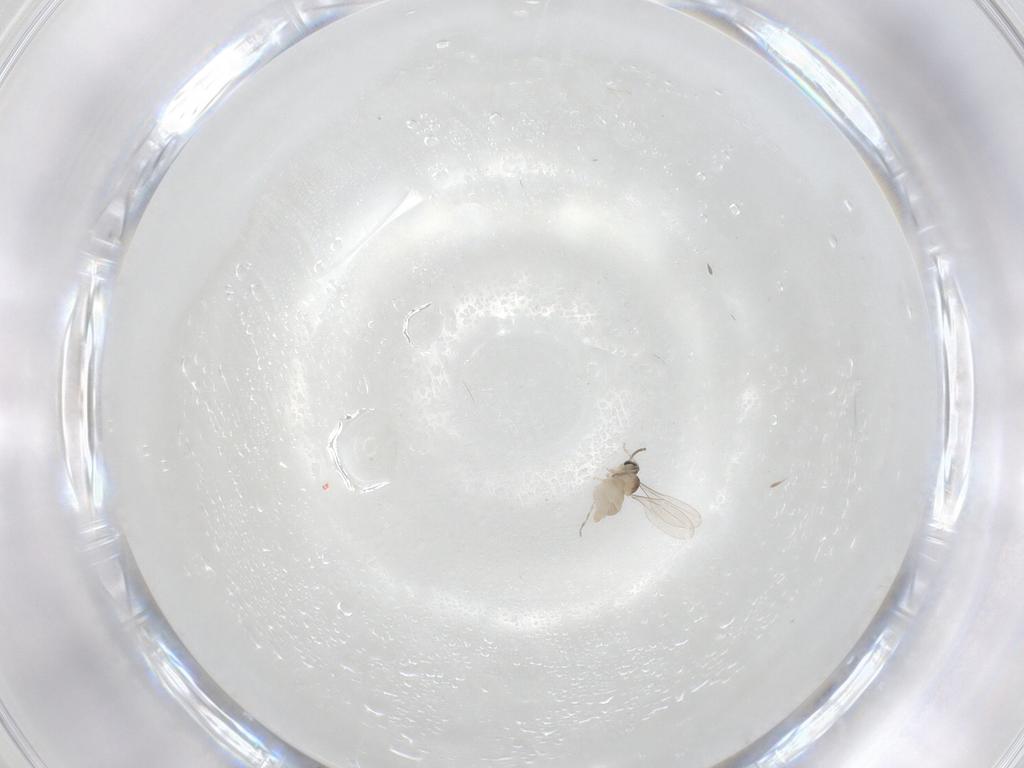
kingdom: Animalia
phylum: Arthropoda
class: Insecta
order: Diptera
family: Cecidomyiidae
